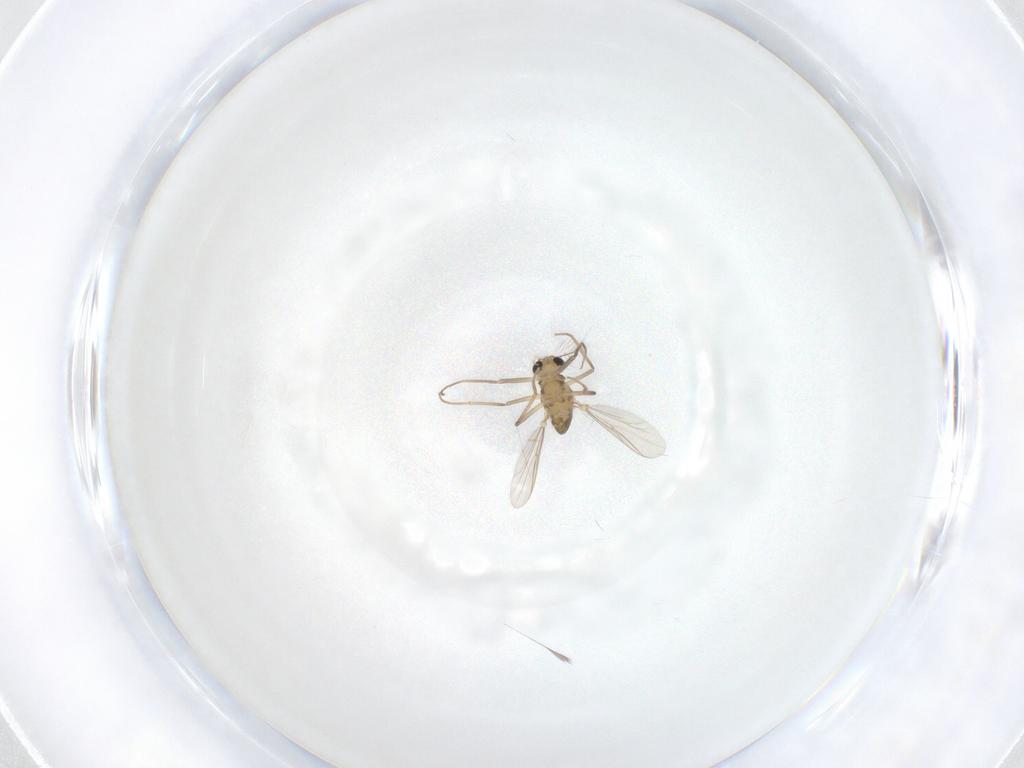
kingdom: Animalia
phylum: Arthropoda
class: Insecta
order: Diptera
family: Chironomidae
